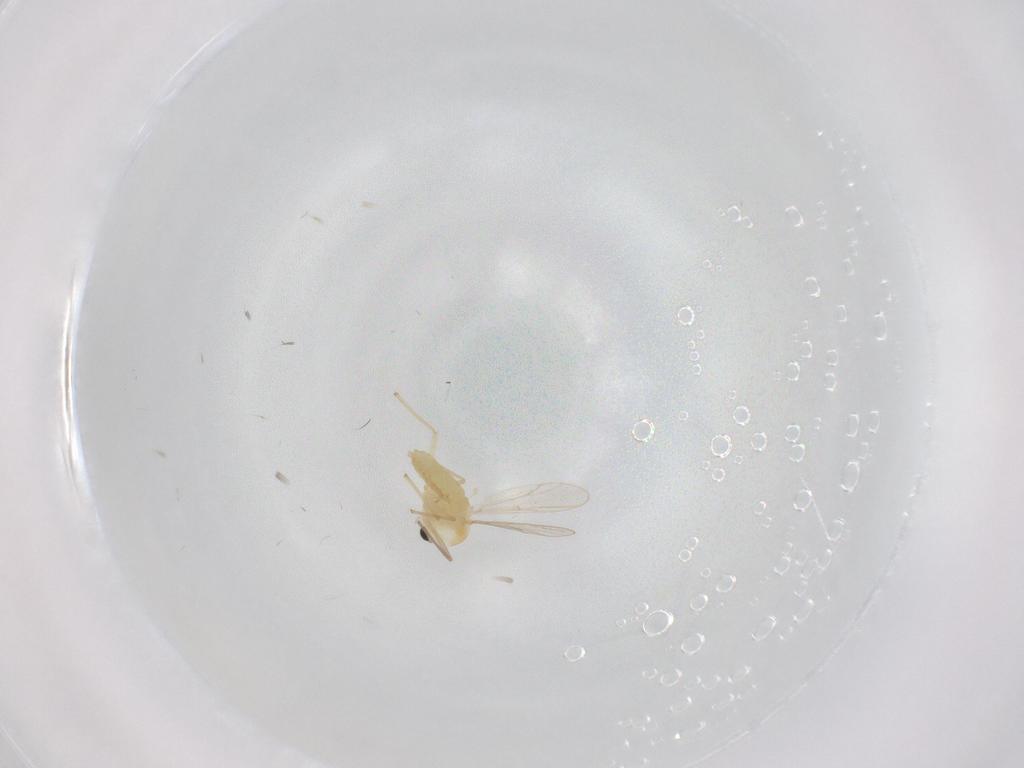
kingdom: Animalia
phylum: Arthropoda
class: Insecta
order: Diptera
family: Chironomidae
